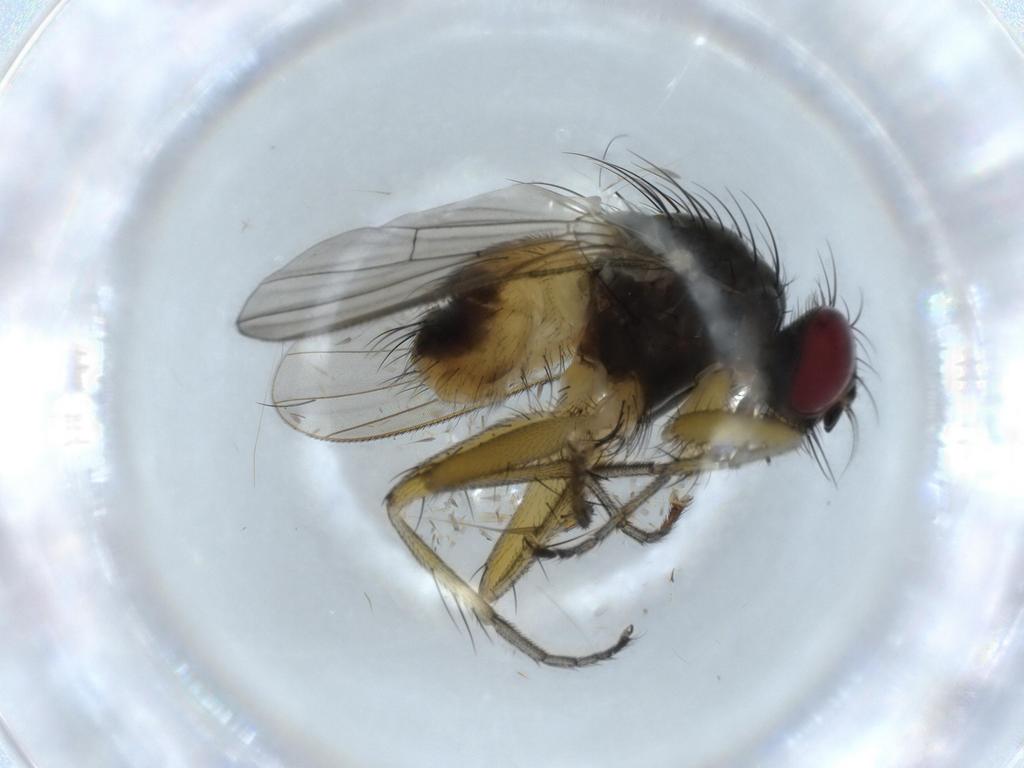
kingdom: Animalia
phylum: Arthropoda
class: Insecta
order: Diptera
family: Muscidae
